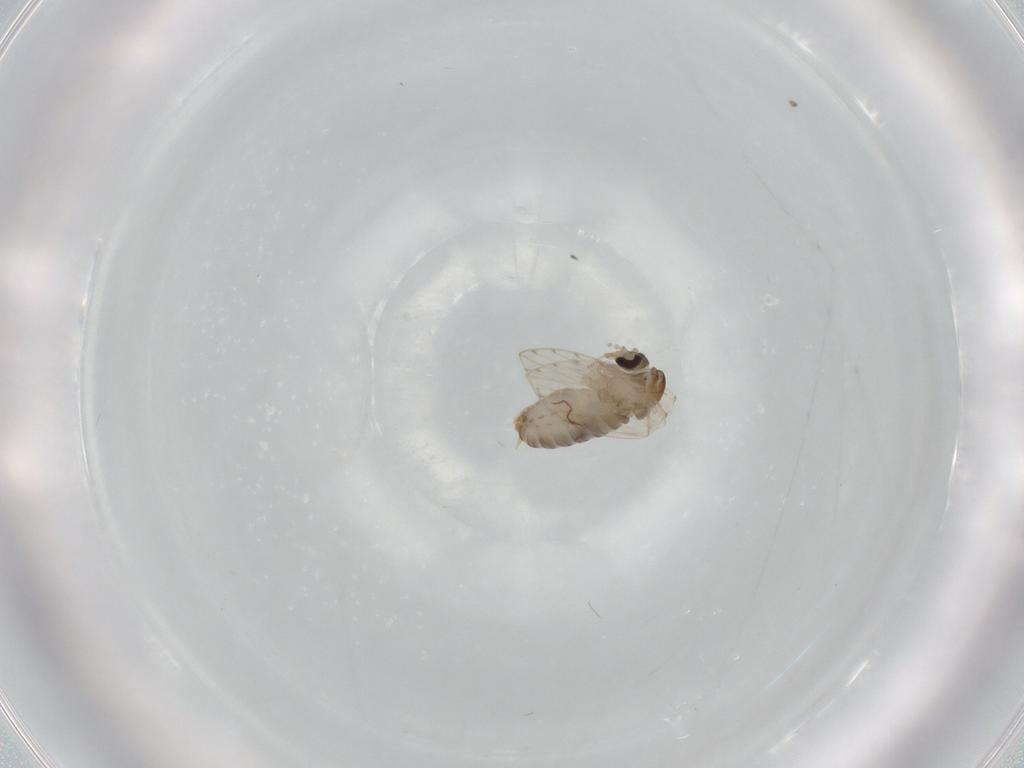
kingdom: Animalia
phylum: Arthropoda
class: Insecta
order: Diptera
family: Psychodidae
